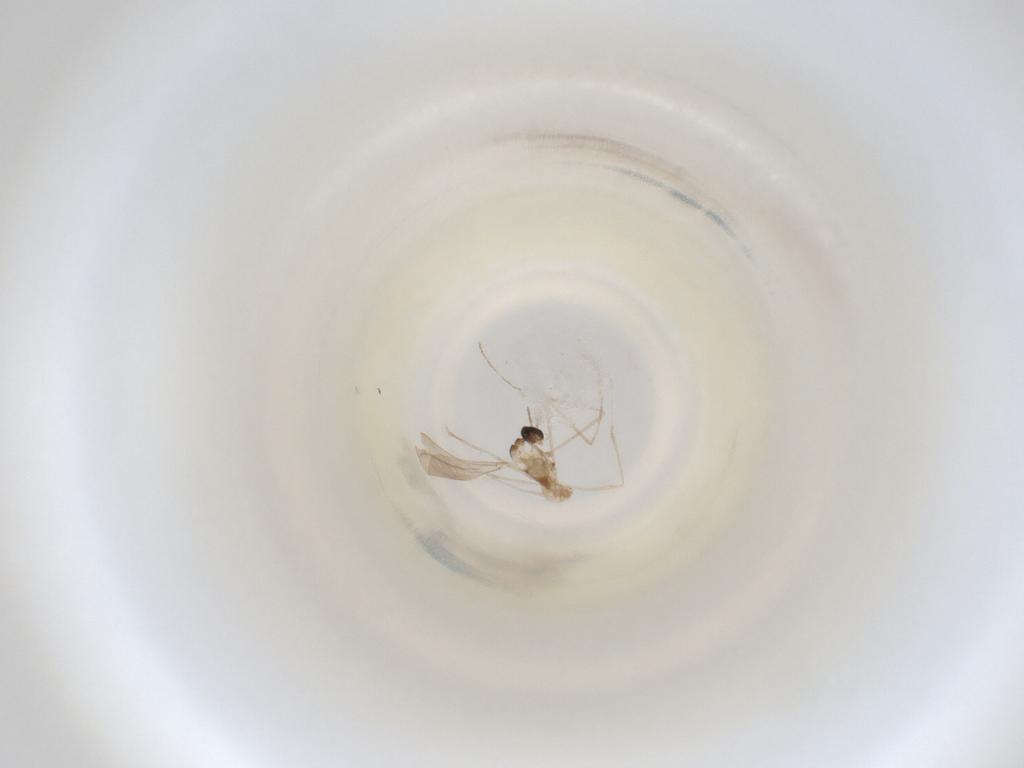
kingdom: Animalia
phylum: Arthropoda
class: Insecta
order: Diptera
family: Cecidomyiidae
